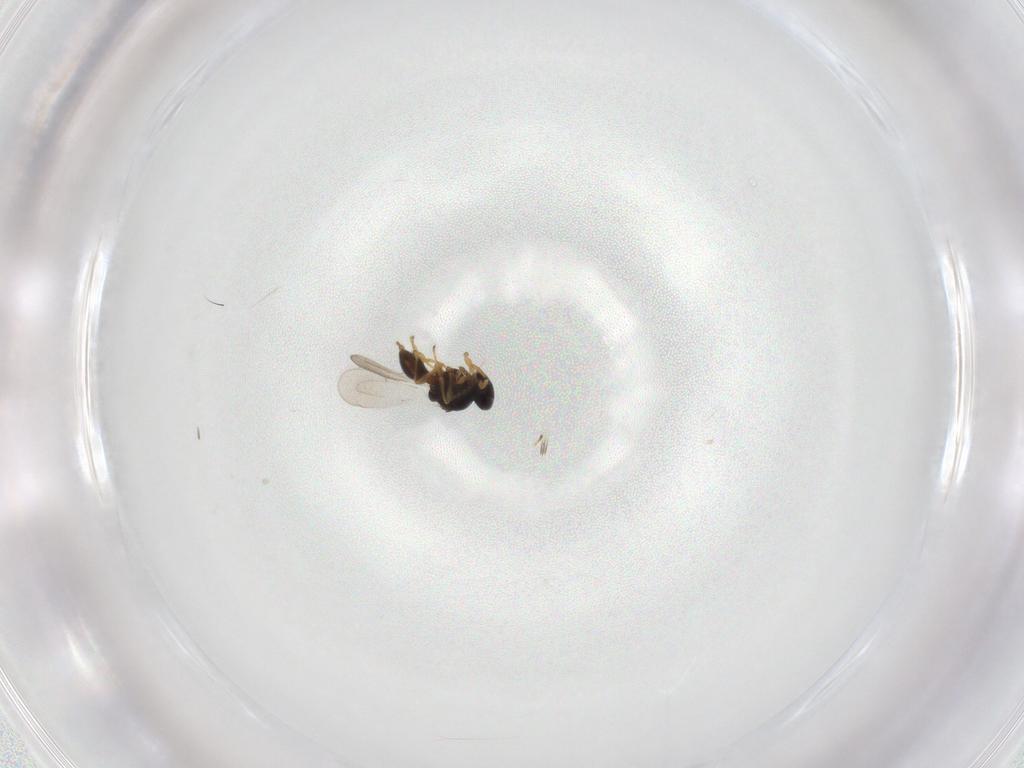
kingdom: Animalia
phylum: Arthropoda
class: Insecta
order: Hymenoptera
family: Platygastridae
